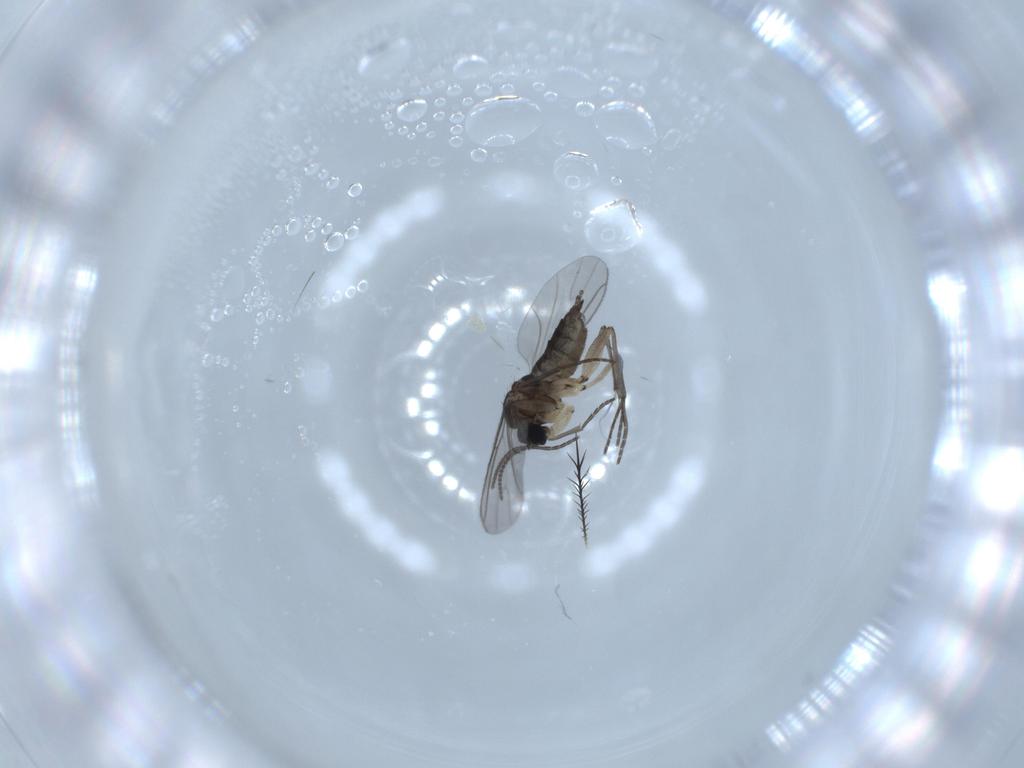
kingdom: Animalia
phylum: Arthropoda
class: Insecta
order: Diptera
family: Sciaridae
